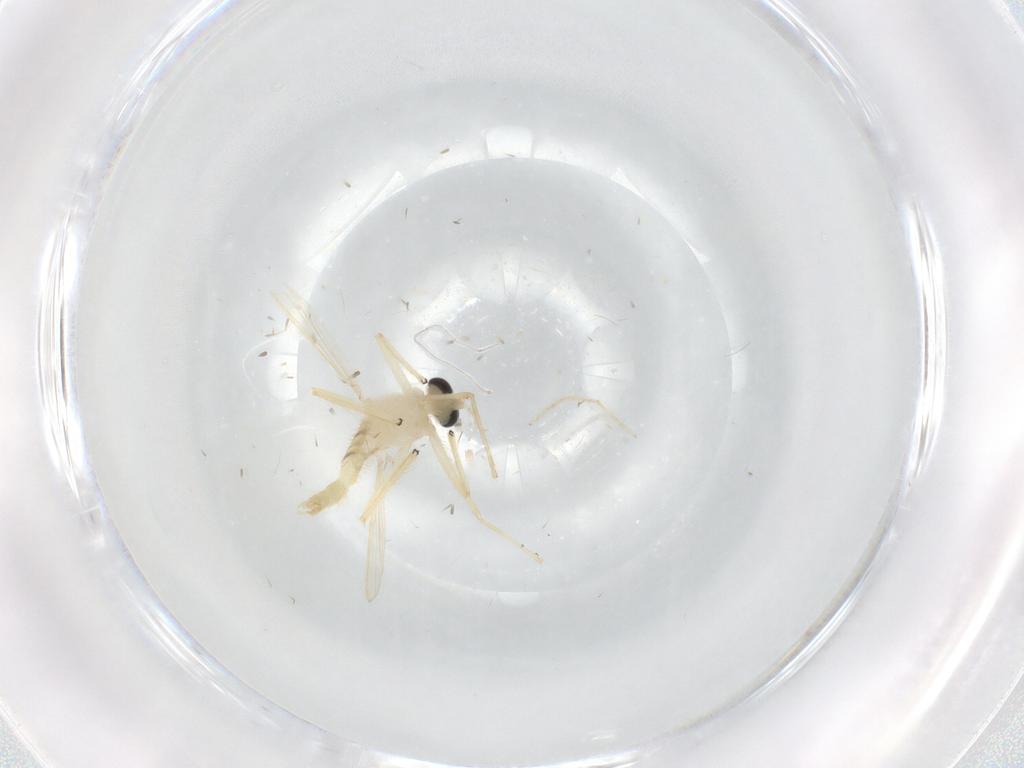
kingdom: Animalia
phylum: Arthropoda
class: Insecta
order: Diptera
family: Chironomidae
